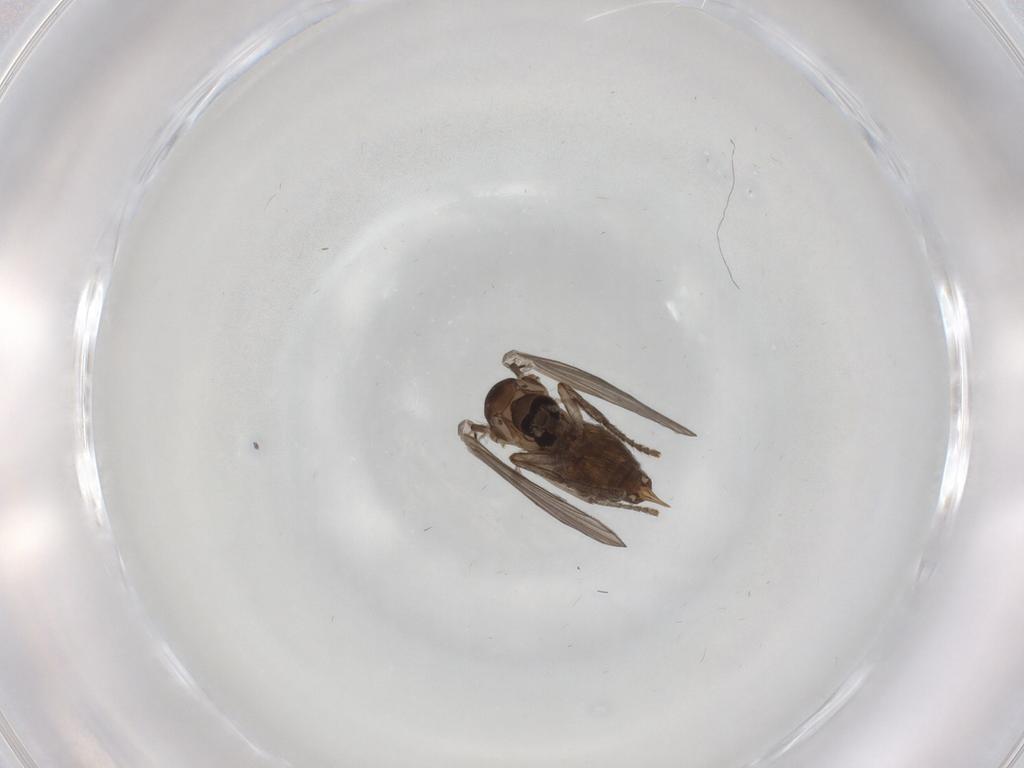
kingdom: Animalia
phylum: Arthropoda
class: Insecta
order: Diptera
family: Psychodidae
